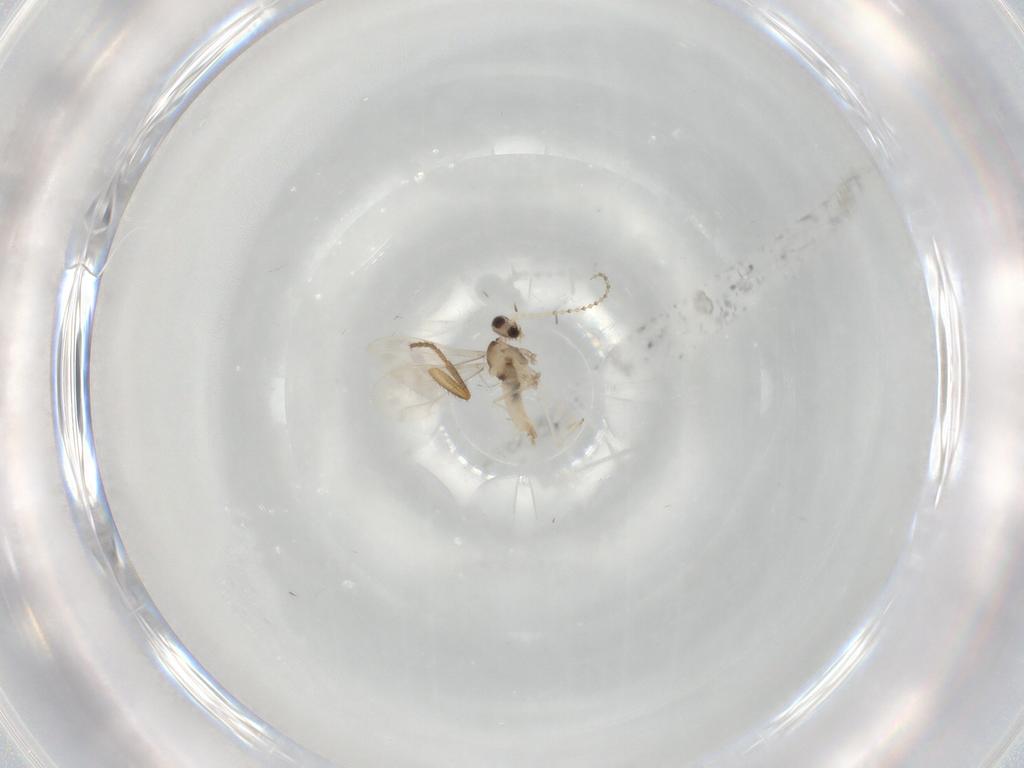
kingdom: Animalia
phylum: Arthropoda
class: Insecta
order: Diptera
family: Cecidomyiidae
